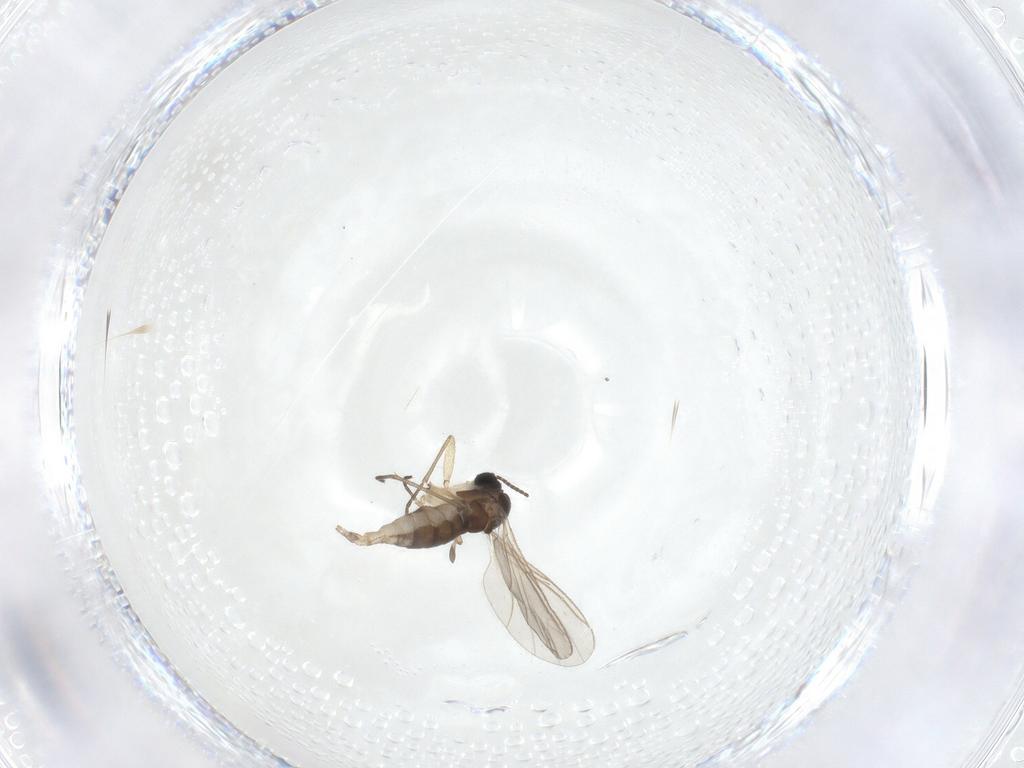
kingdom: Animalia
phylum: Arthropoda
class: Insecta
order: Diptera
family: Sciaridae
